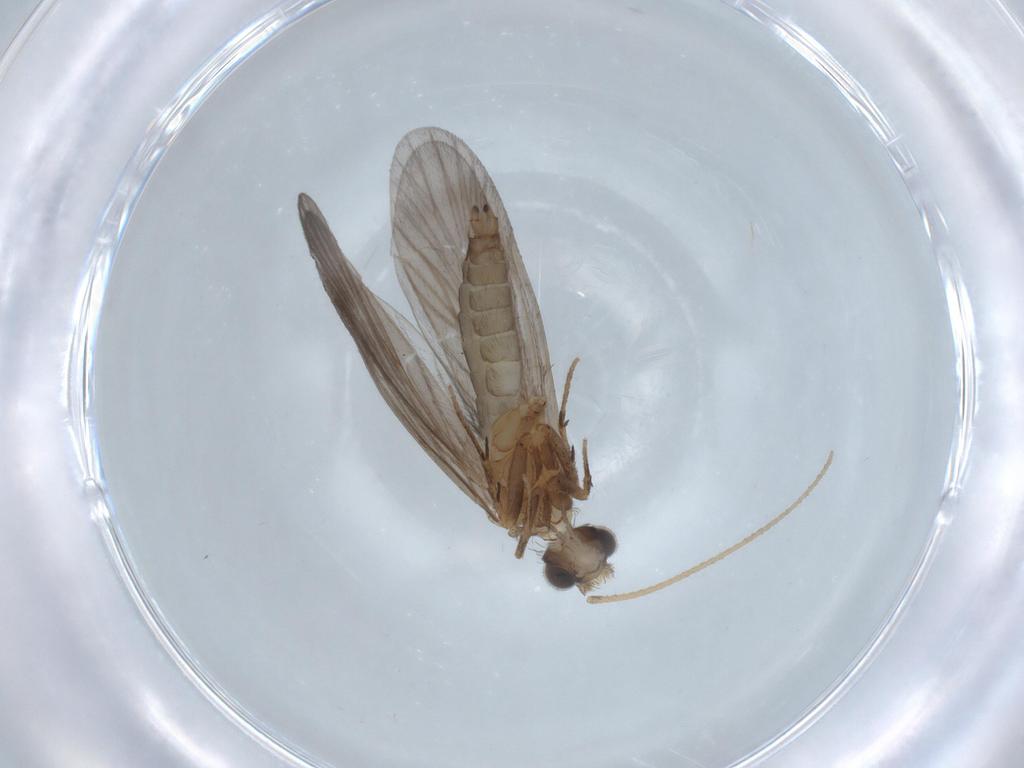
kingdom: Animalia
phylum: Arthropoda
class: Insecta
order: Trichoptera
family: Philopotamidae
